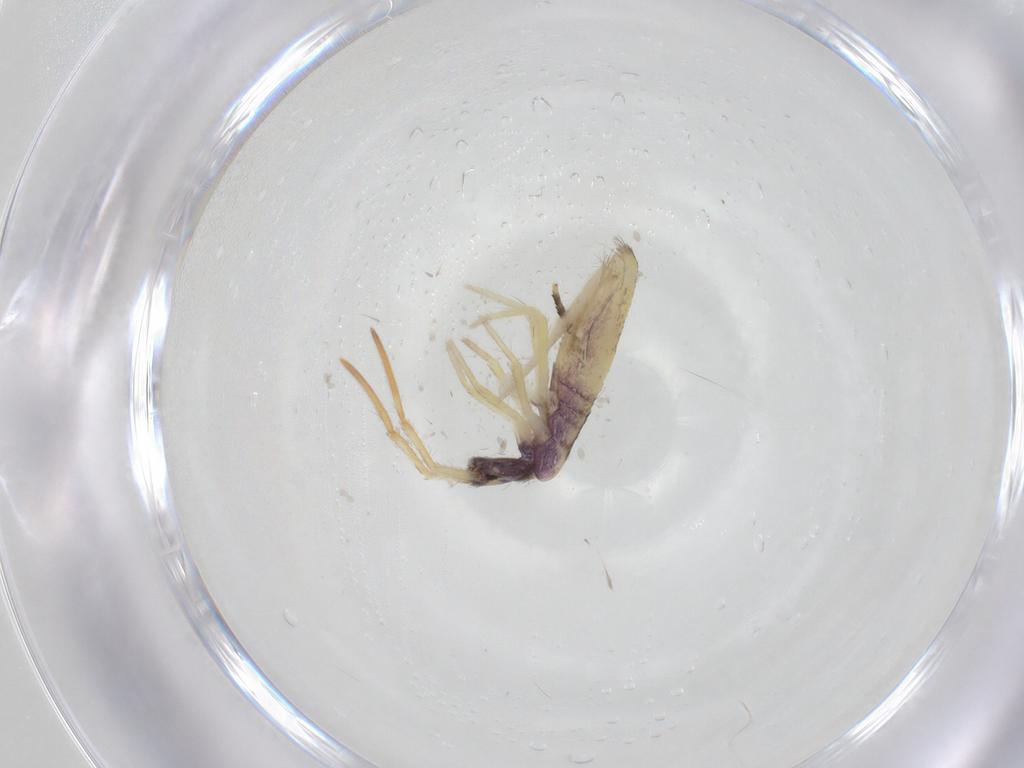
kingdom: Animalia
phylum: Arthropoda
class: Collembola
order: Entomobryomorpha
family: Entomobryidae
